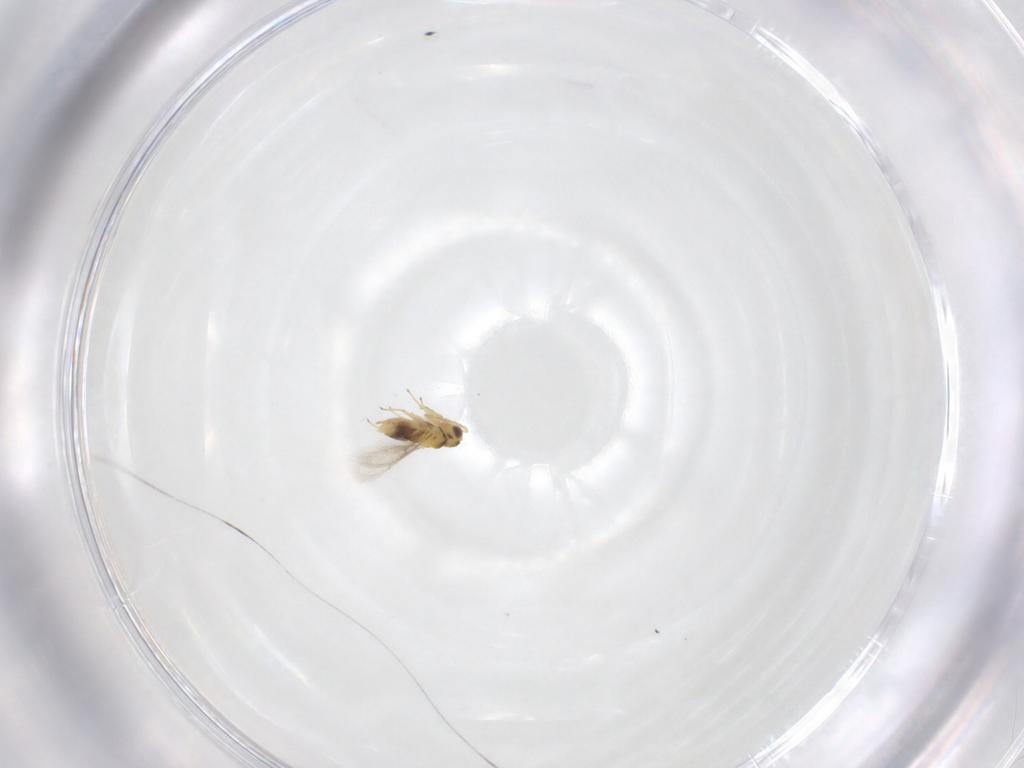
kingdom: Animalia
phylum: Arthropoda
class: Insecta
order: Hymenoptera
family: Aphelinidae
